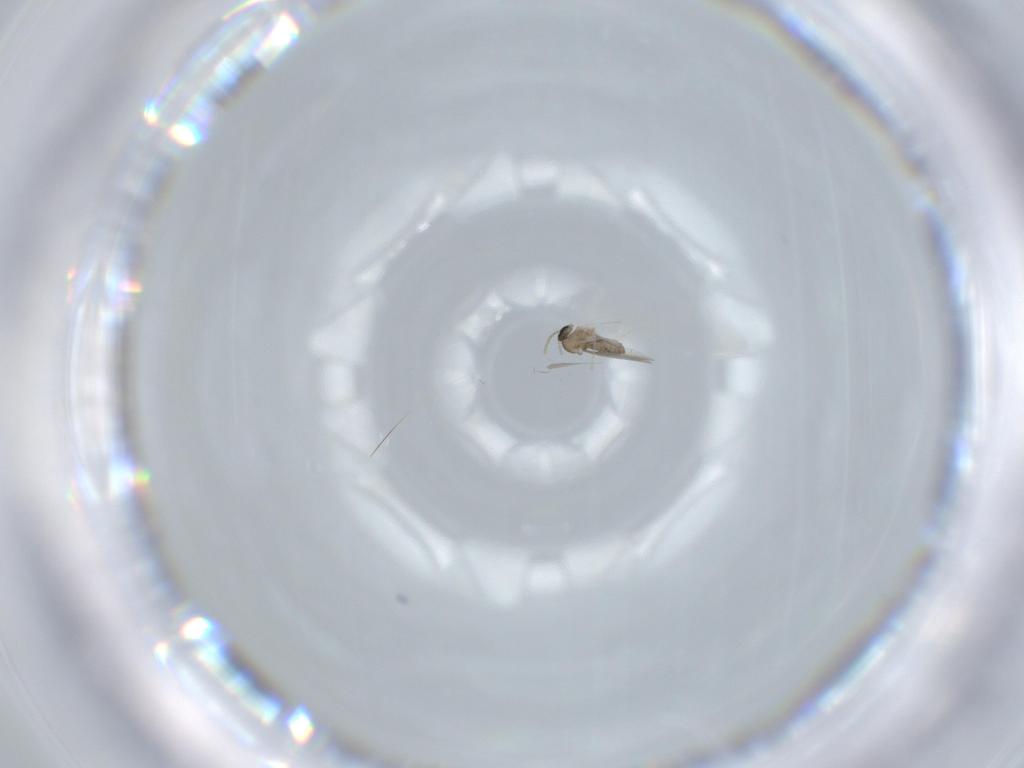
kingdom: Animalia
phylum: Arthropoda
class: Insecta
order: Diptera
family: Cecidomyiidae
